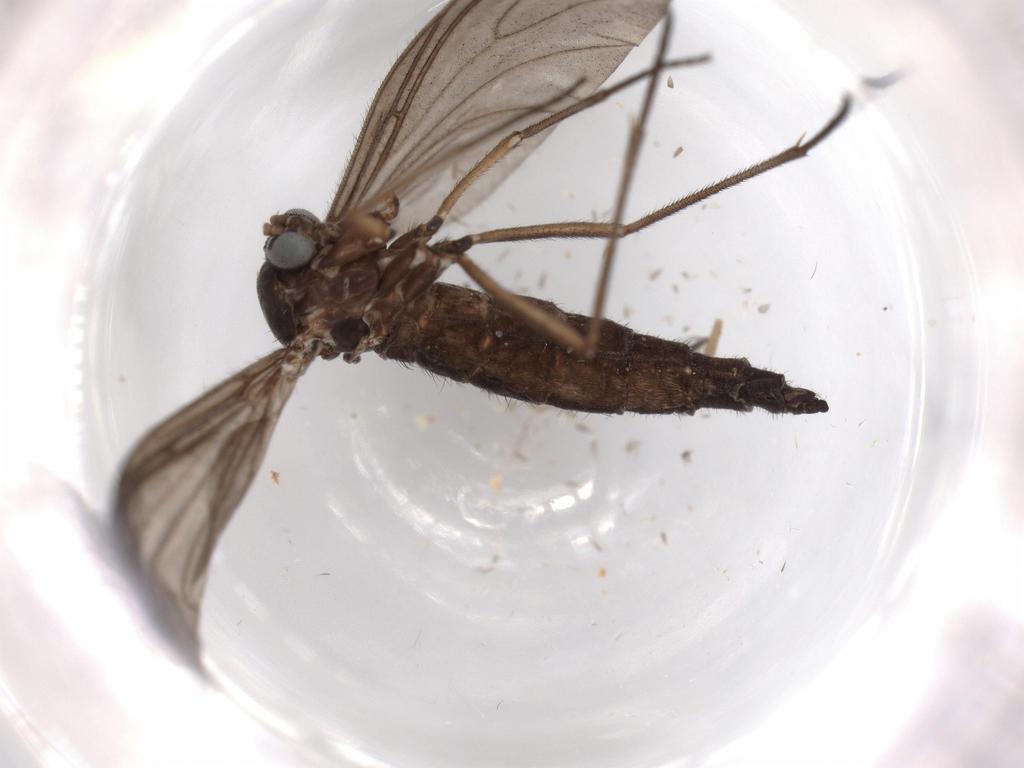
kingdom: Animalia
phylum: Arthropoda
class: Insecta
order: Diptera
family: Sciaridae
